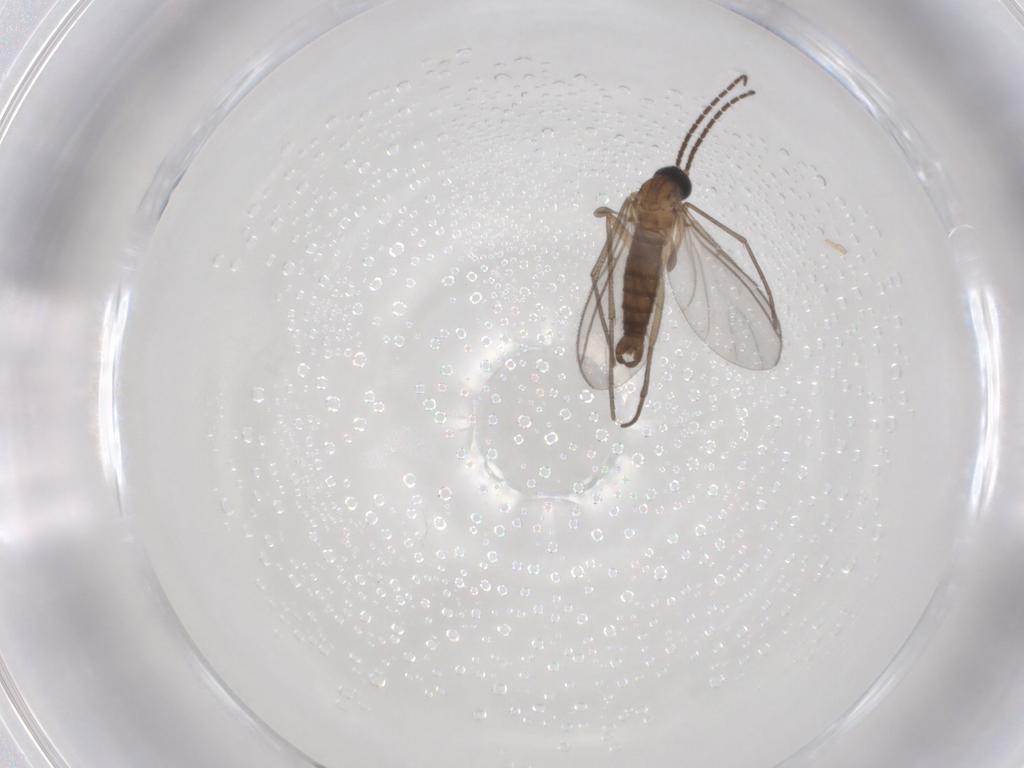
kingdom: Animalia
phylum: Arthropoda
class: Insecta
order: Diptera
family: Sciaridae
